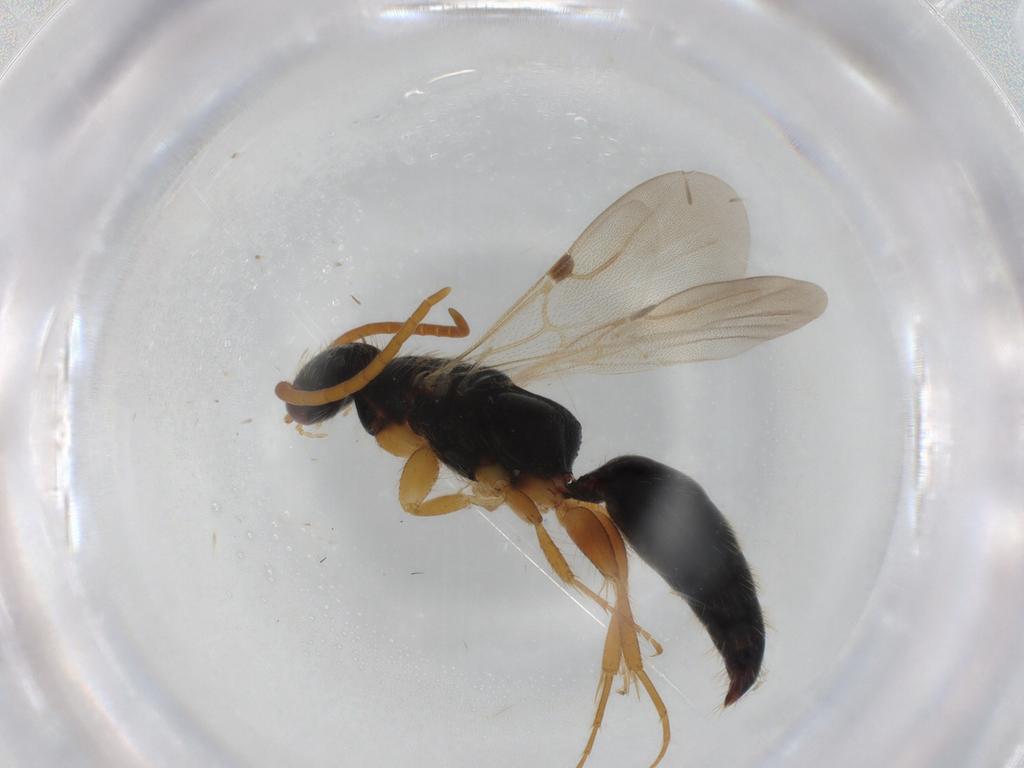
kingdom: Animalia
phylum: Arthropoda
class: Insecta
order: Hymenoptera
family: Bethylidae
